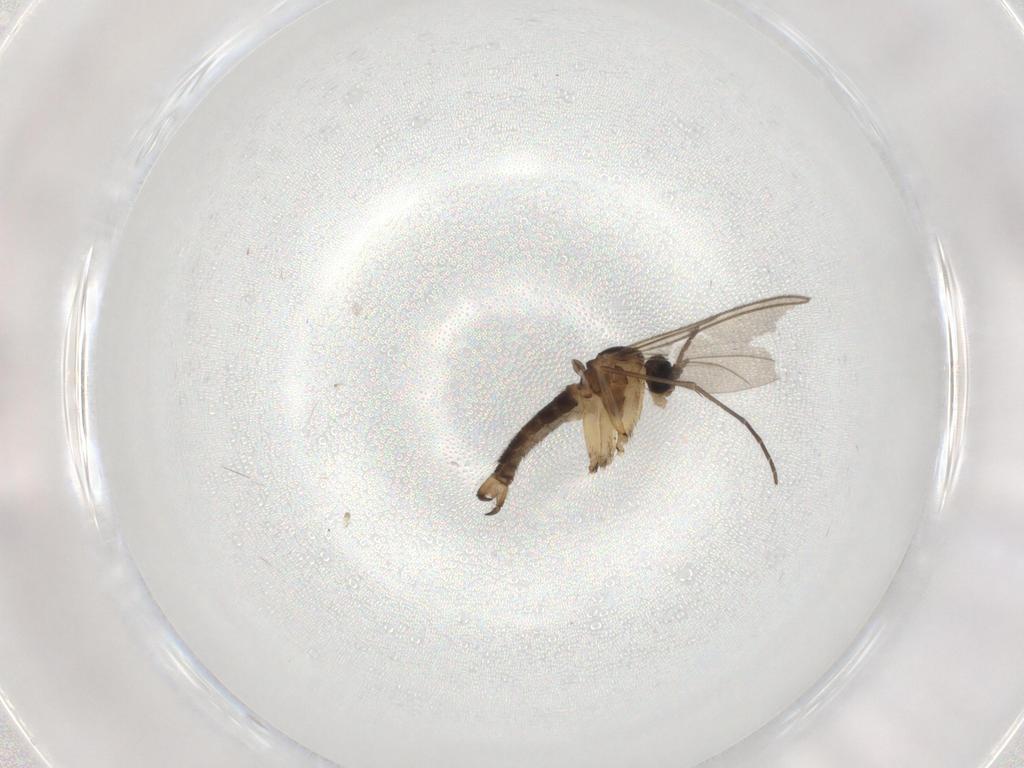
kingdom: Animalia
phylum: Arthropoda
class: Insecta
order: Diptera
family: Sciaridae
